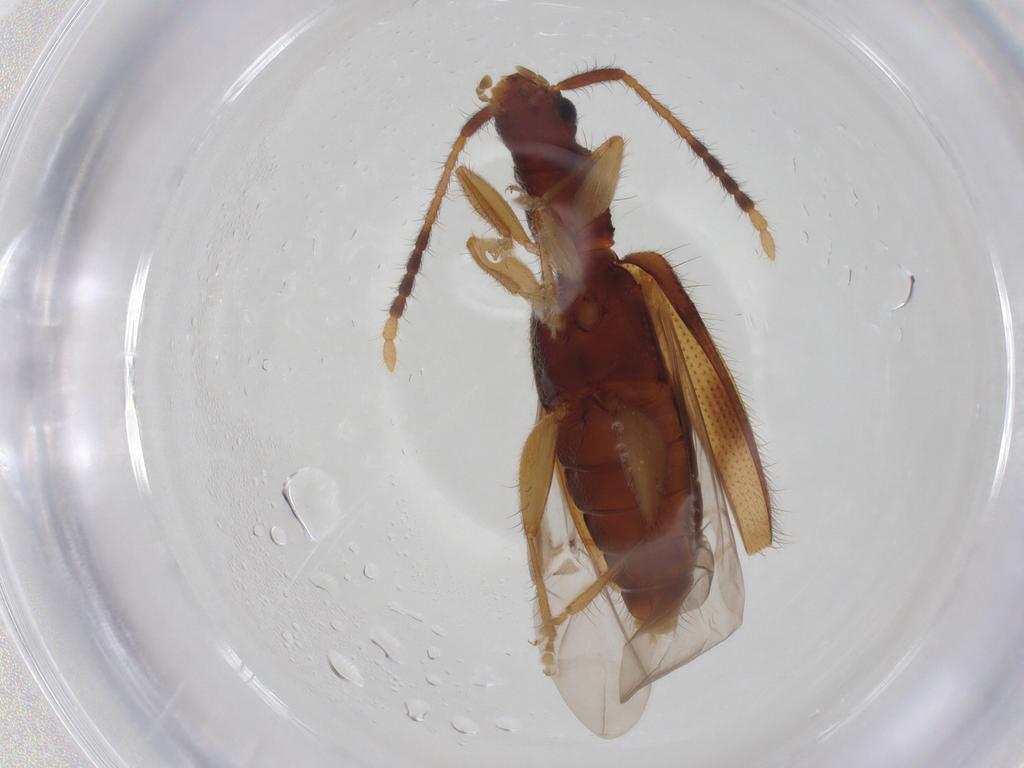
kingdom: Animalia
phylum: Arthropoda
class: Insecta
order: Coleoptera
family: Silvanidae
